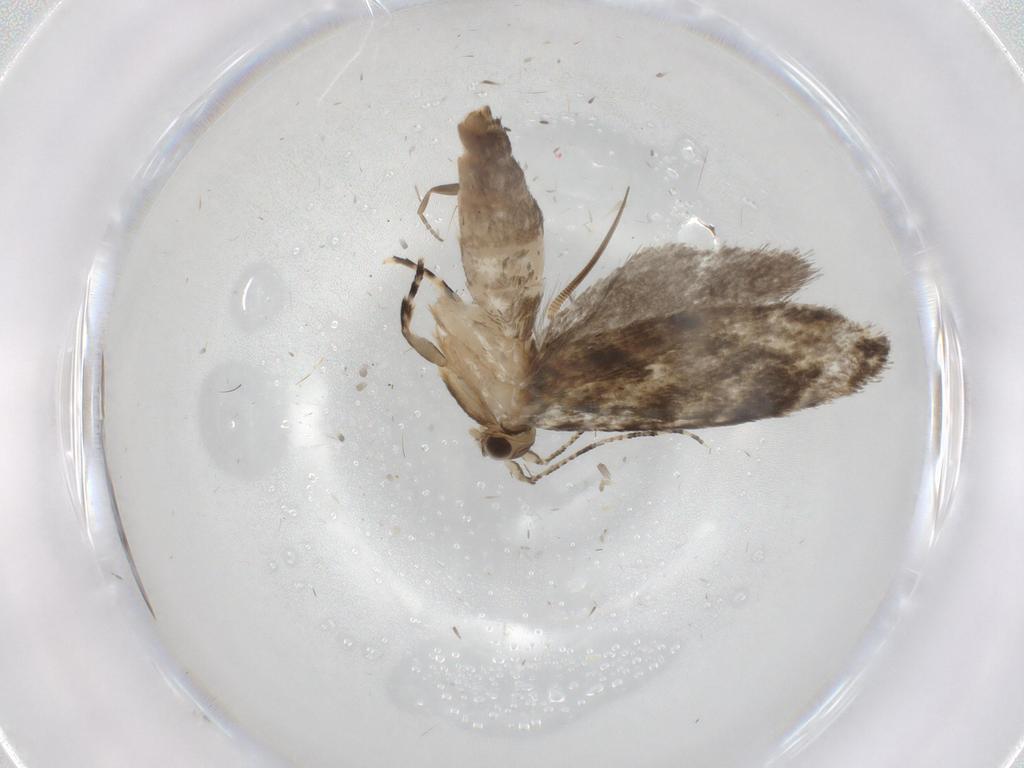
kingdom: Animalia
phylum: Arthropoda
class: Insecta
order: Lepidoptera
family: Tineidae
